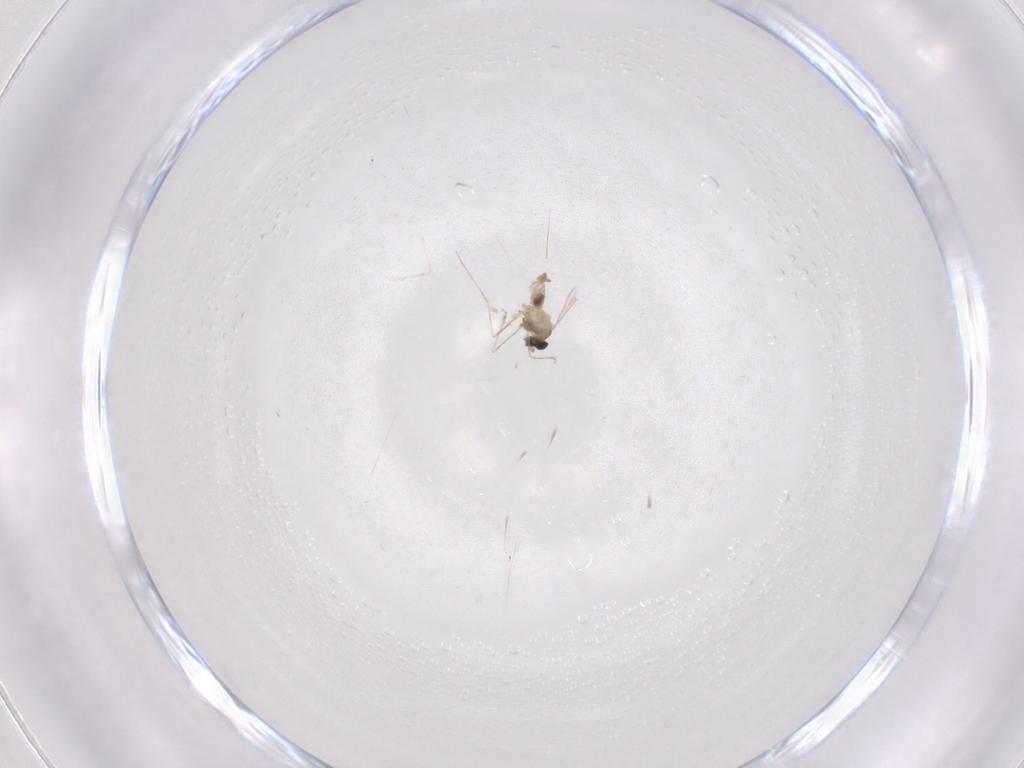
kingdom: Animalia
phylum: Arthropoda
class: Insecta
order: Diptera
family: Cecidomyiidae
